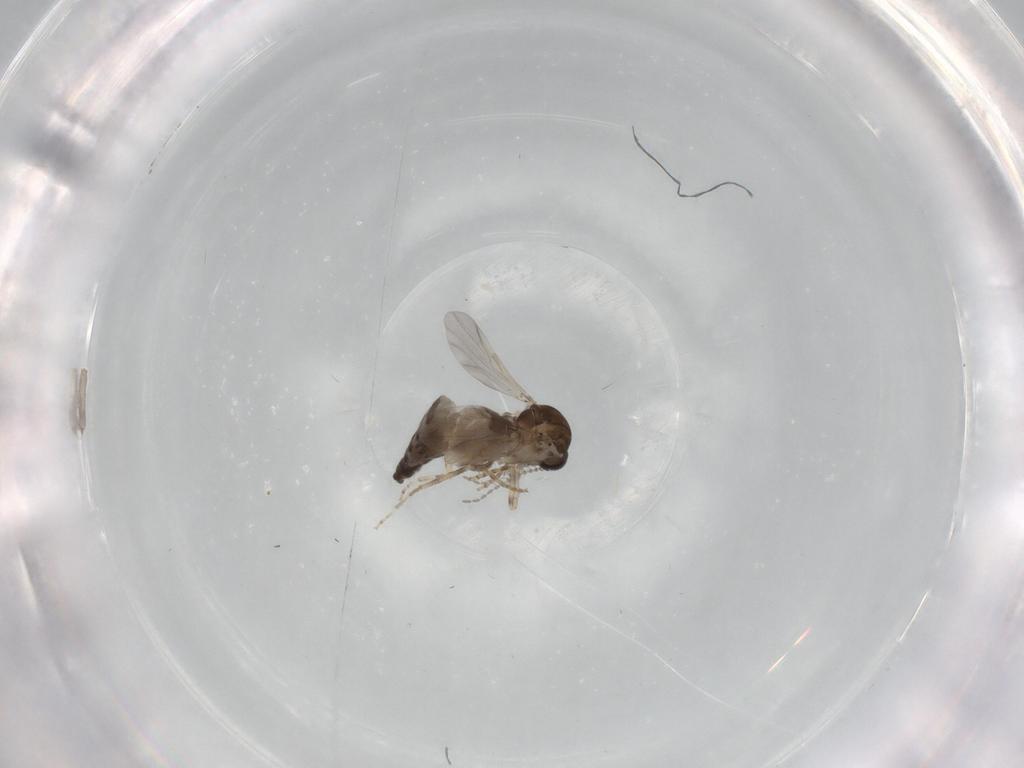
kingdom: Animalia
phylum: Arthropoda
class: Insecta
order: Diptera
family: Ceratopogonidae
